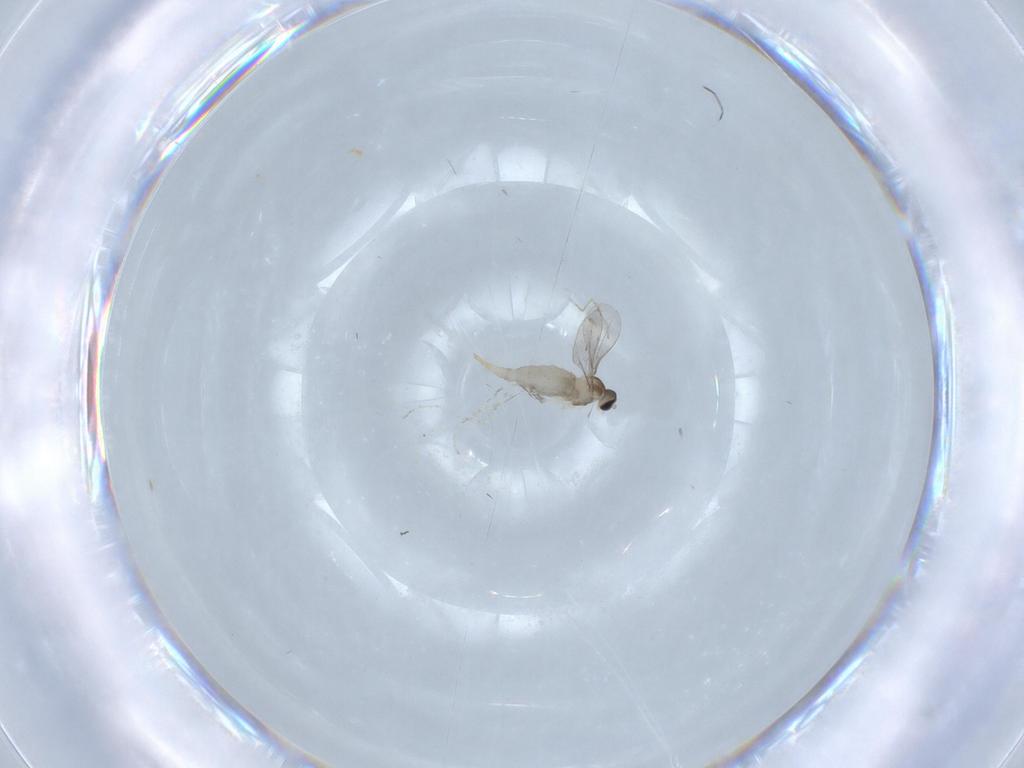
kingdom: Animalia
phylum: Arthropoda
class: Insecta
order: Diptera
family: Cecidomyiidae
